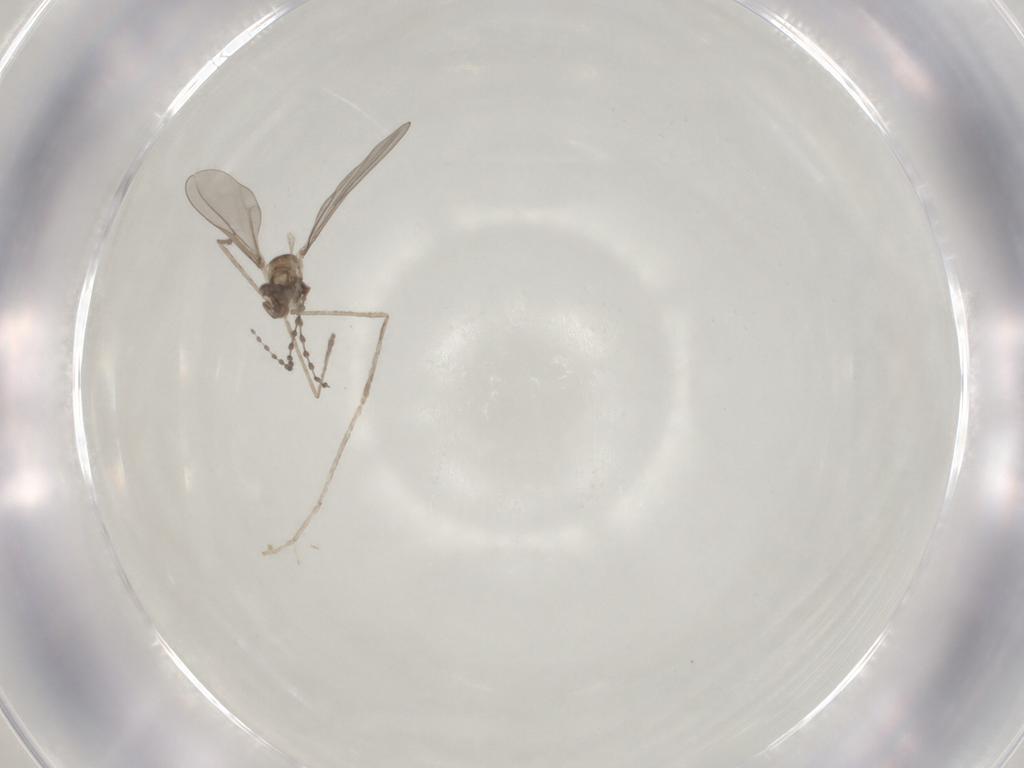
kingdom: Animalia
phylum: Arthropoda
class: Insecta
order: Diptera
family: Cecidomyiidae
